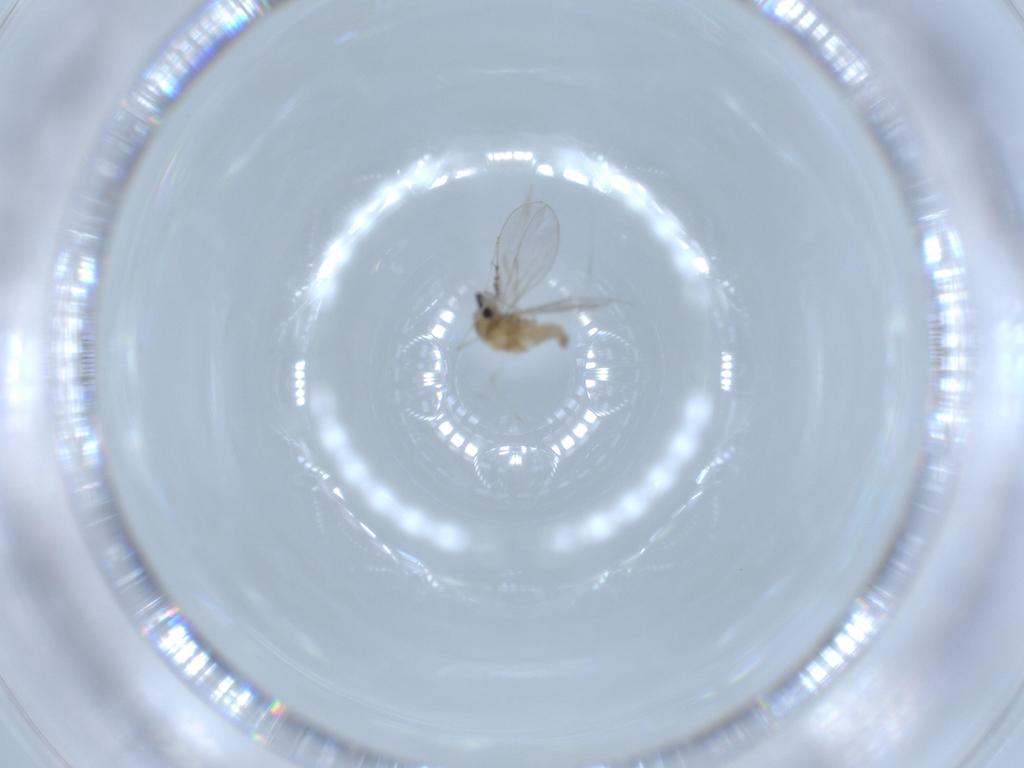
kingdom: Animalia
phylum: Arthropoda
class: Insecta
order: Diptera
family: Cecidomyiidae
